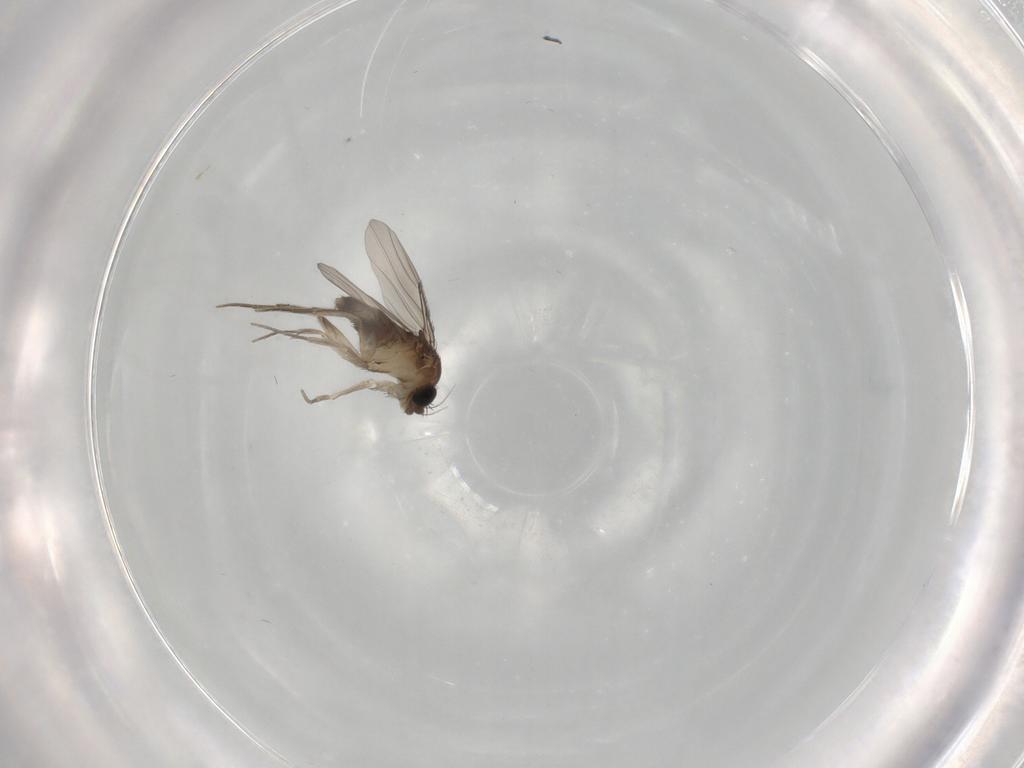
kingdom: Animalia
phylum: Arthropoda
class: Insecta
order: Diptera
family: Phoridae
